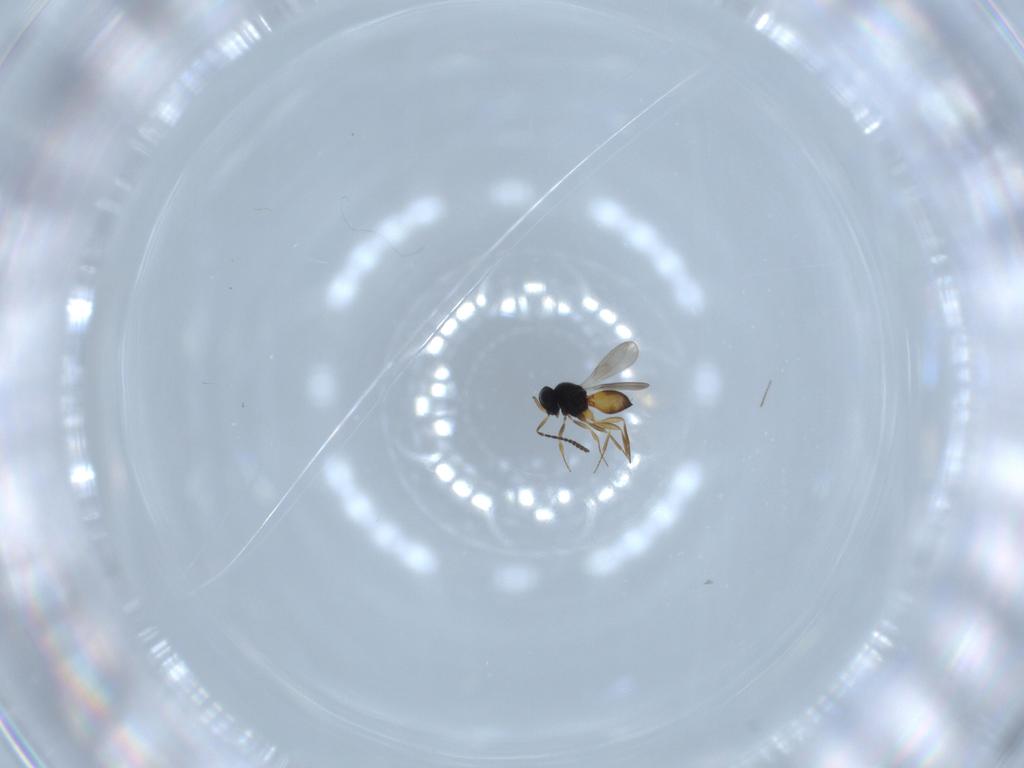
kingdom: Animalia
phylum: Arthropoda
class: Insecta
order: Hymenoptera
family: Scelionidae
